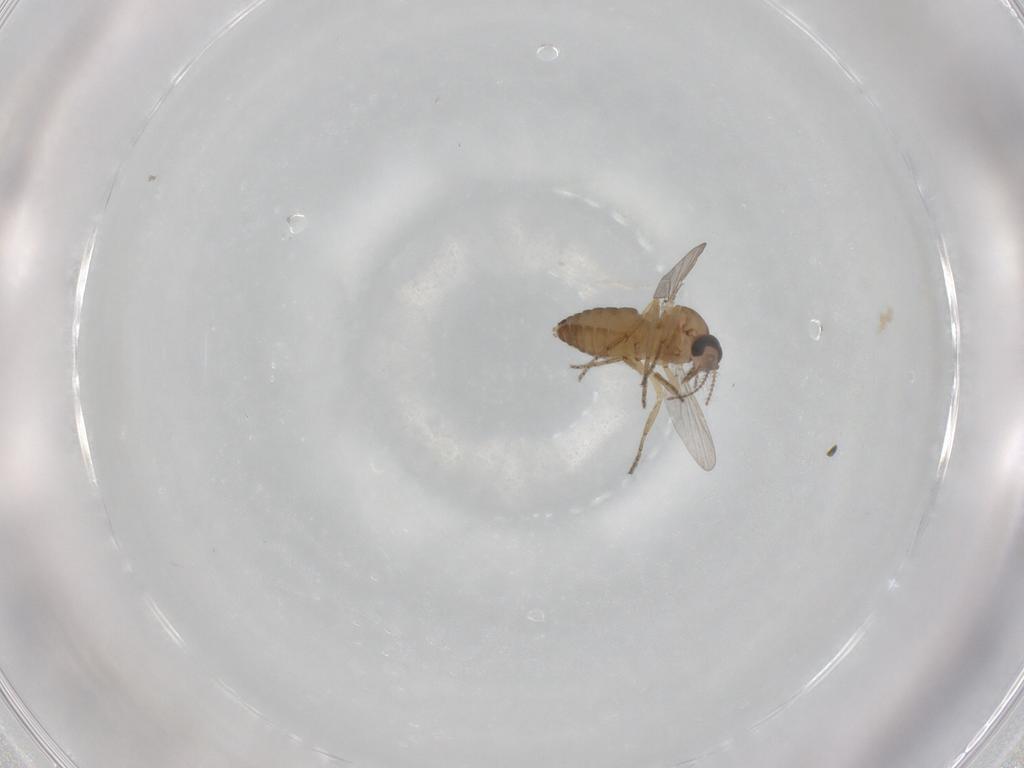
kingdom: Animalia
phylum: Arthropoda
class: Insecta
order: Diptera
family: Ceratopogonidae
